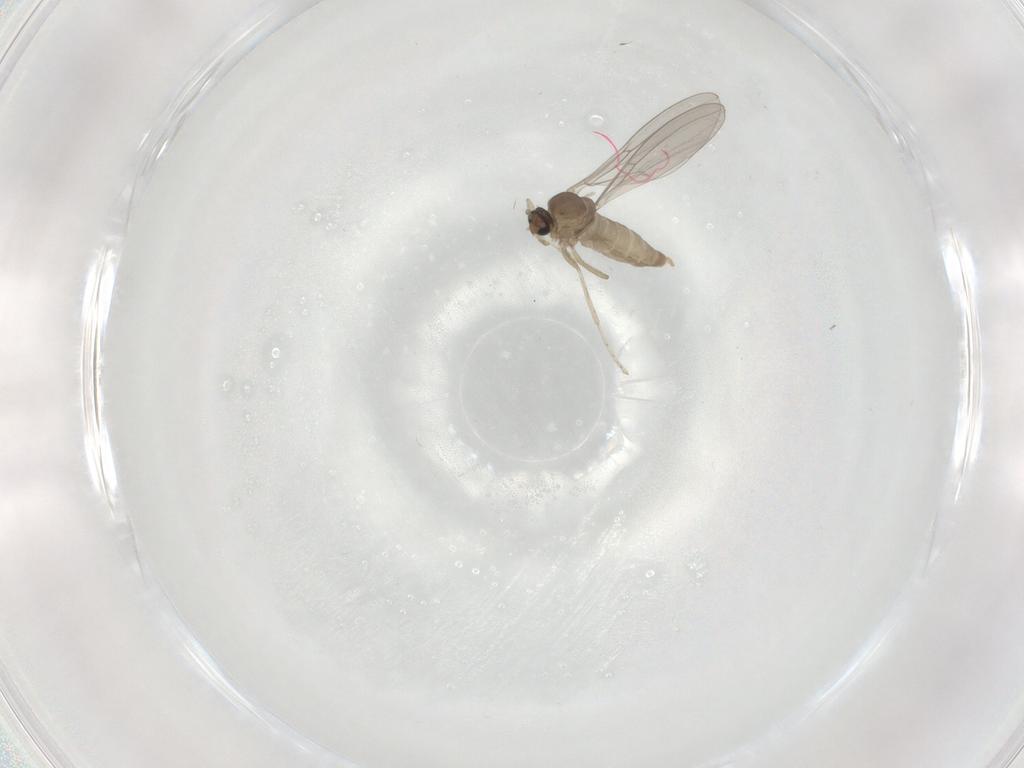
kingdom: Animalia
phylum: Arthropoda
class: Insecta
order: Diptera
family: Cecidomyiidae
